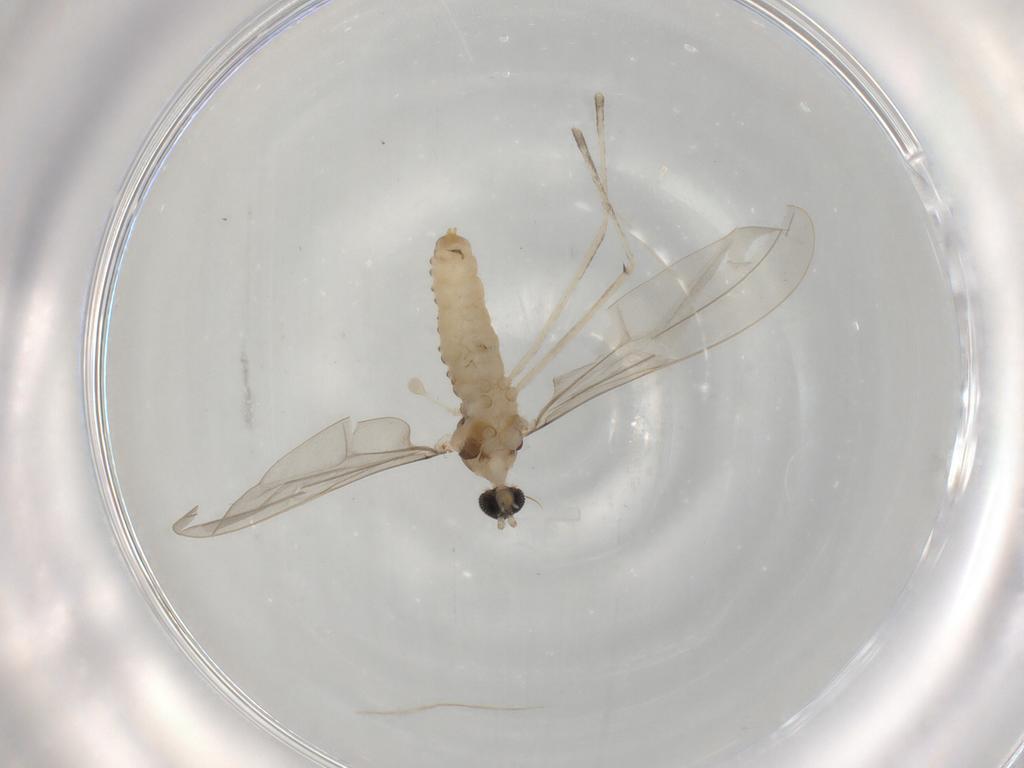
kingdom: Animalia
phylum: Arthropoda
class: Insecta
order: Diptera
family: Cecidomyiidae
